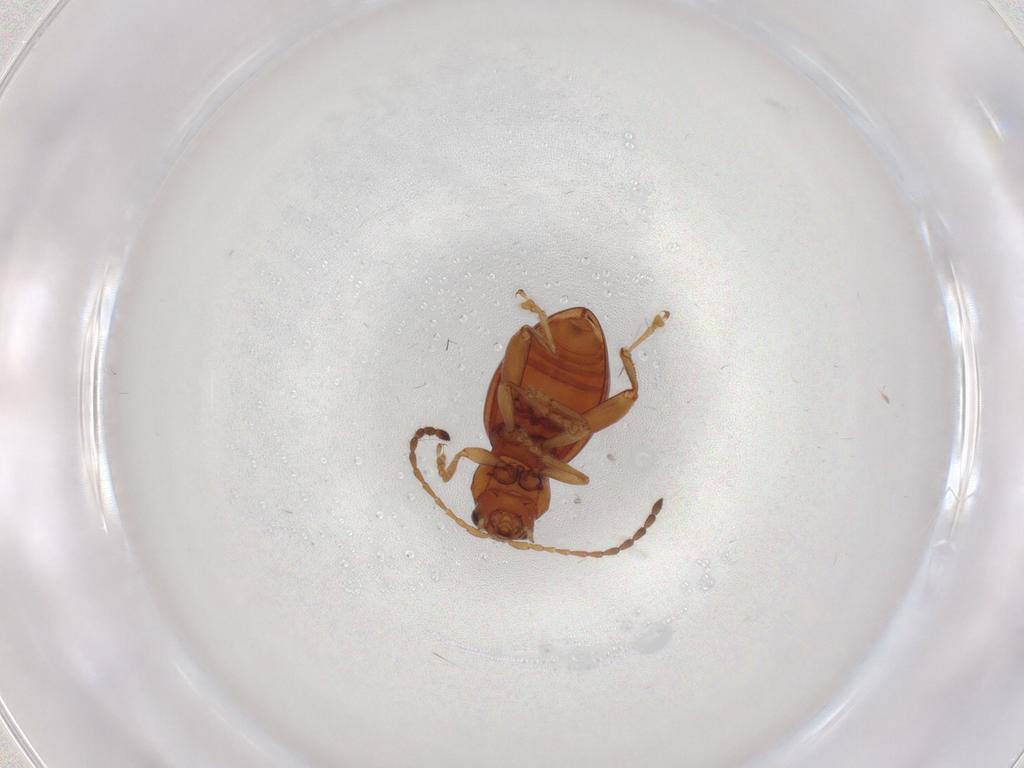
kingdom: Animalia
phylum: Arthropoda
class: Insecta
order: Coleoptera
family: Chrysomelidae
